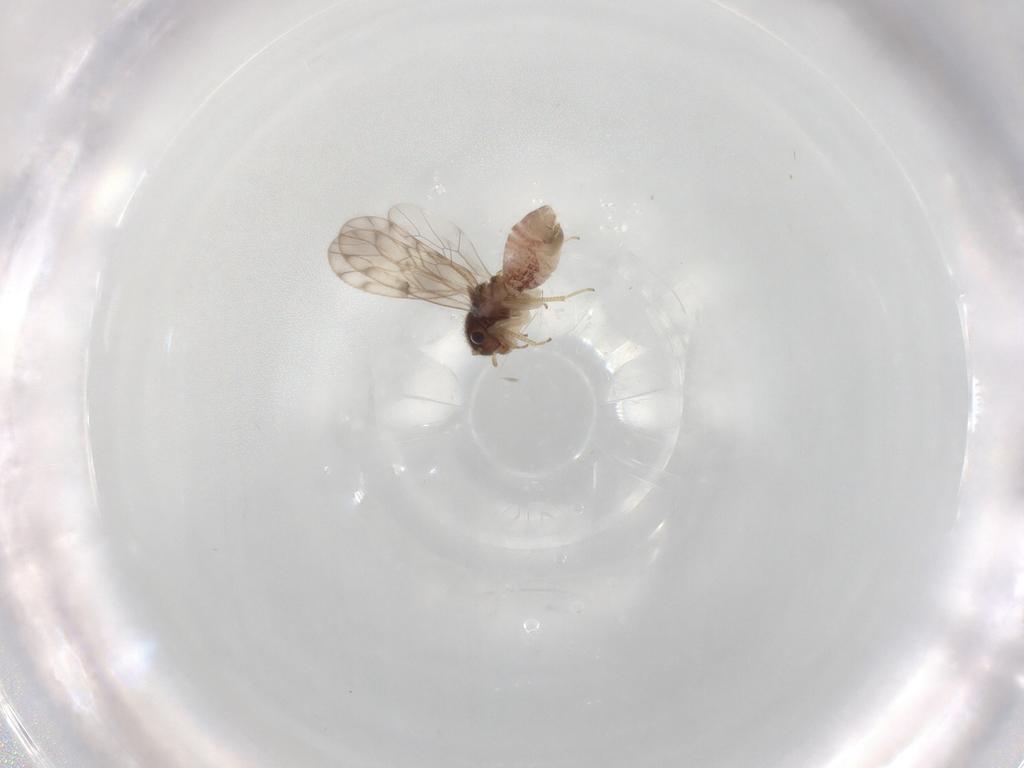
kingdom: Animalia
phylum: Arthropoda
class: Insecta
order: Psocodea
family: Peripsocidae
